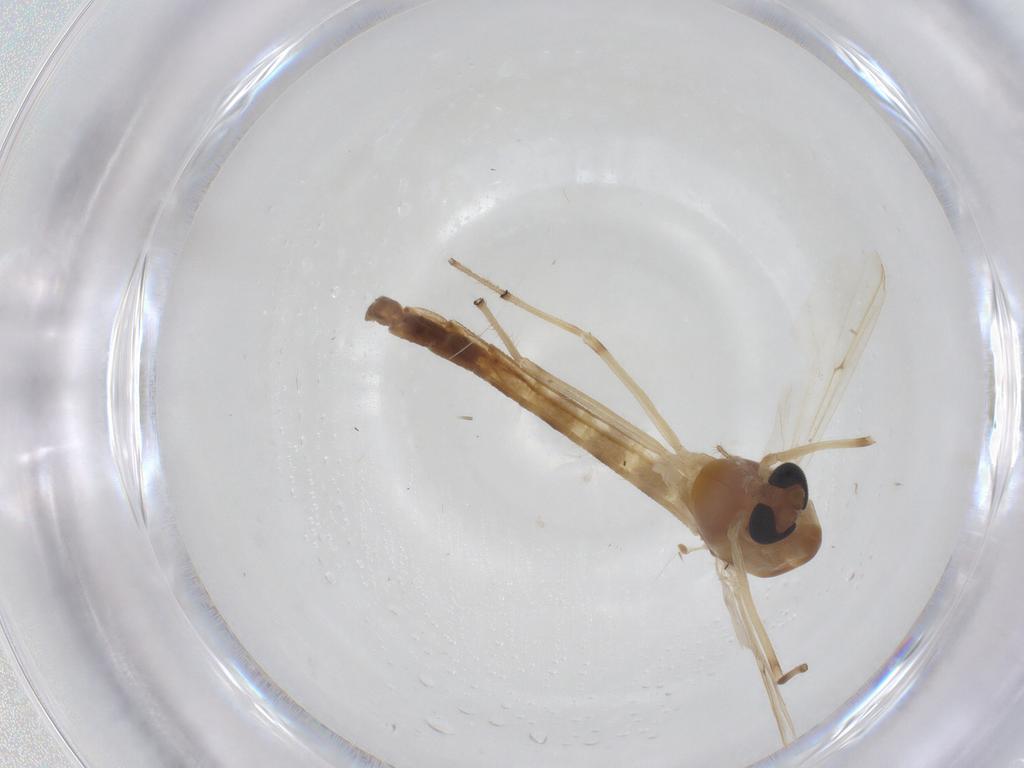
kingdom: Animalia
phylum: Arthropoda
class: Insecta
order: Diptera
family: Chironomidae
